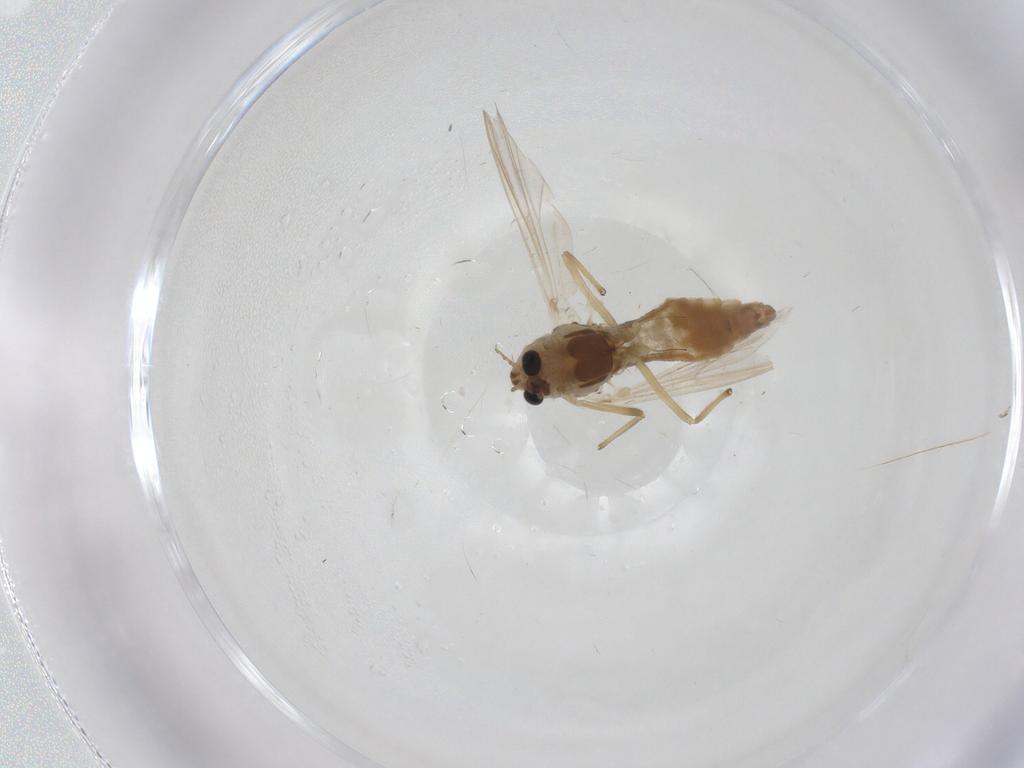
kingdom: Animalia
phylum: Arthropoda
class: Insecta
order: Diptera
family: Chironomidae
